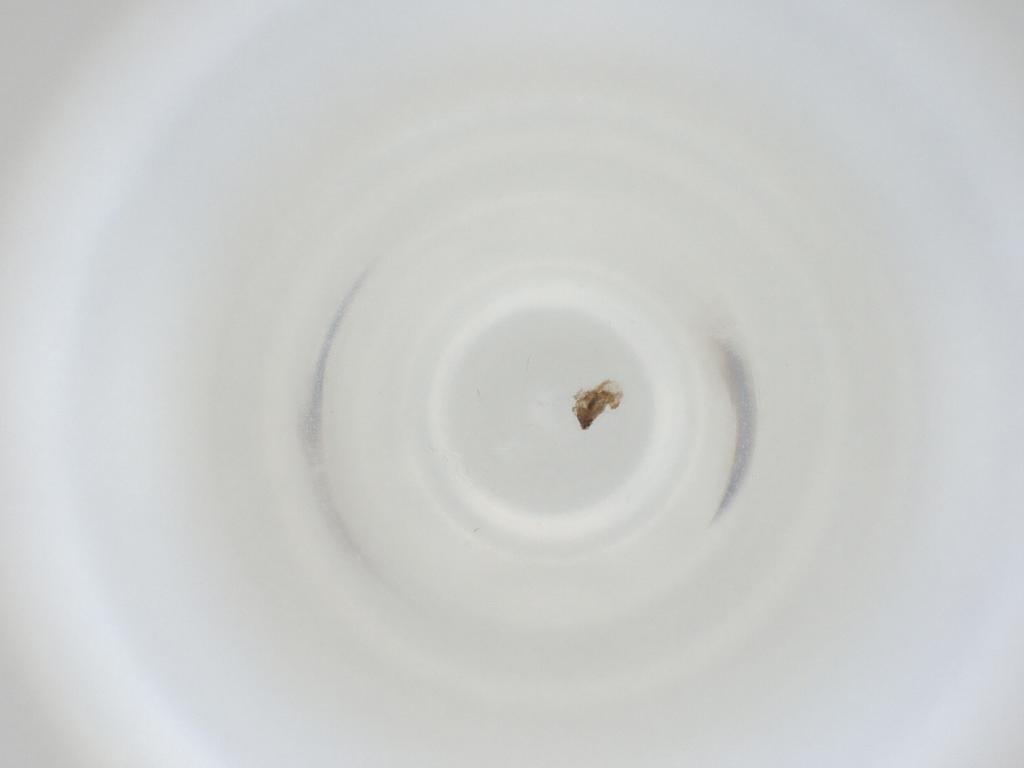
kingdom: Animalia
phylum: Arthropoda
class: Insecta
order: Diptera
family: Cecidomyiidae
